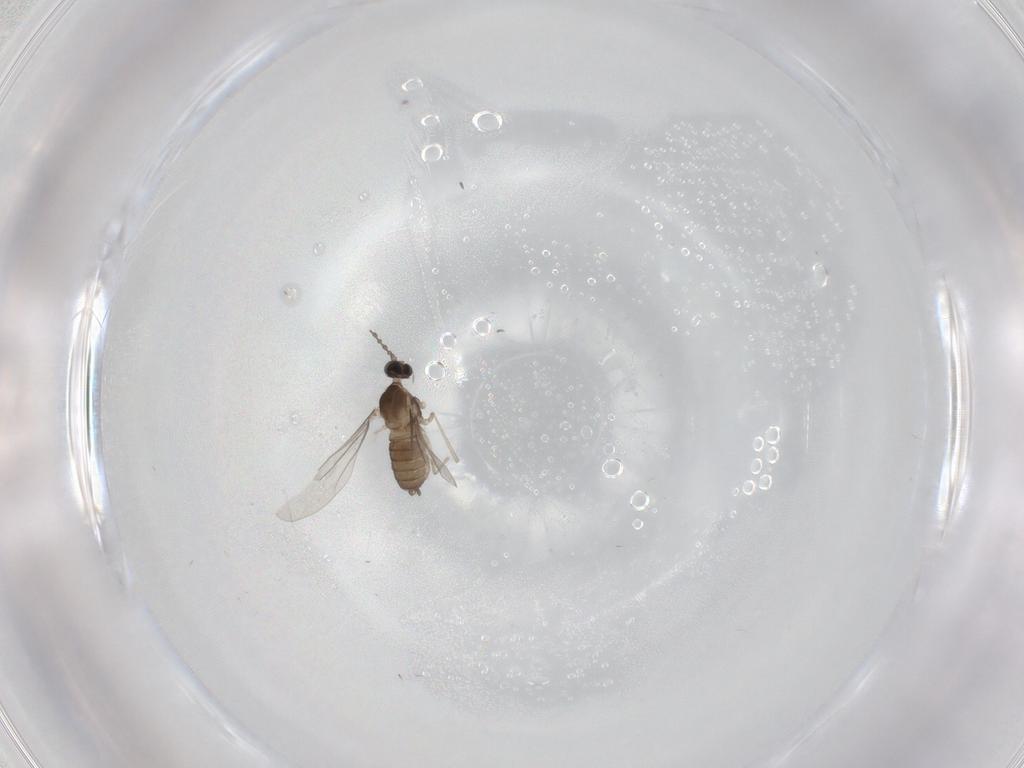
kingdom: Animalia
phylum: Arthropoda
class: Insecta
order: Diptera
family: Cecidomyiidae
